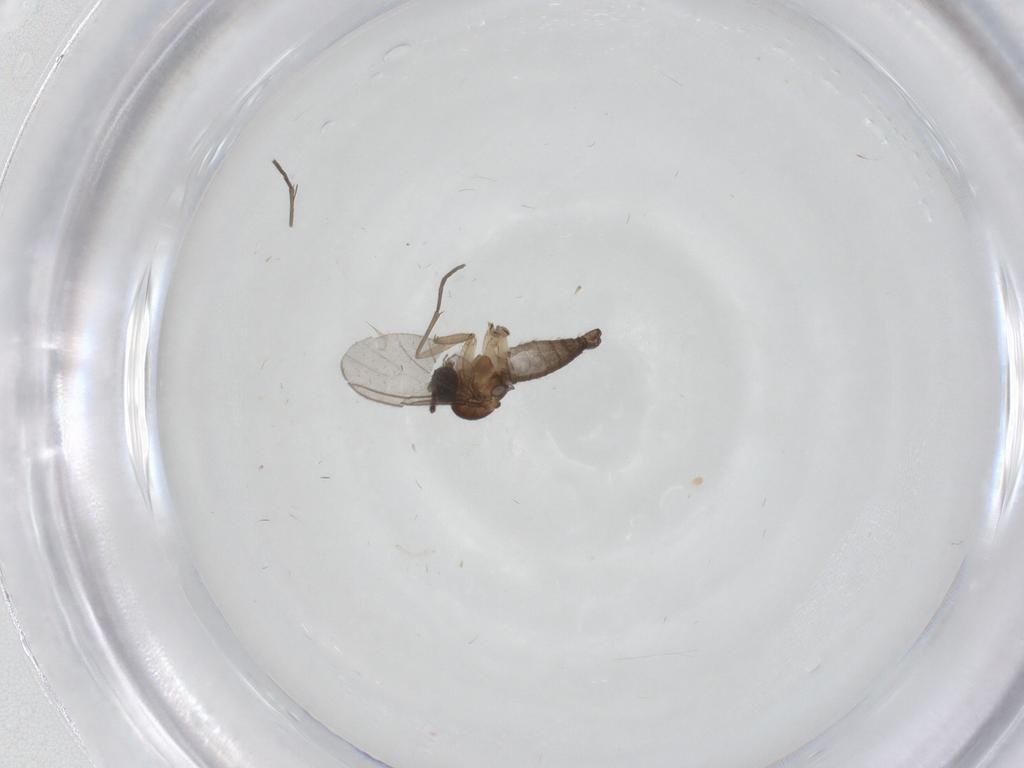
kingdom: Animalia
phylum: Arthropoda
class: Insecta
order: Diptera
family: Sciaridae
